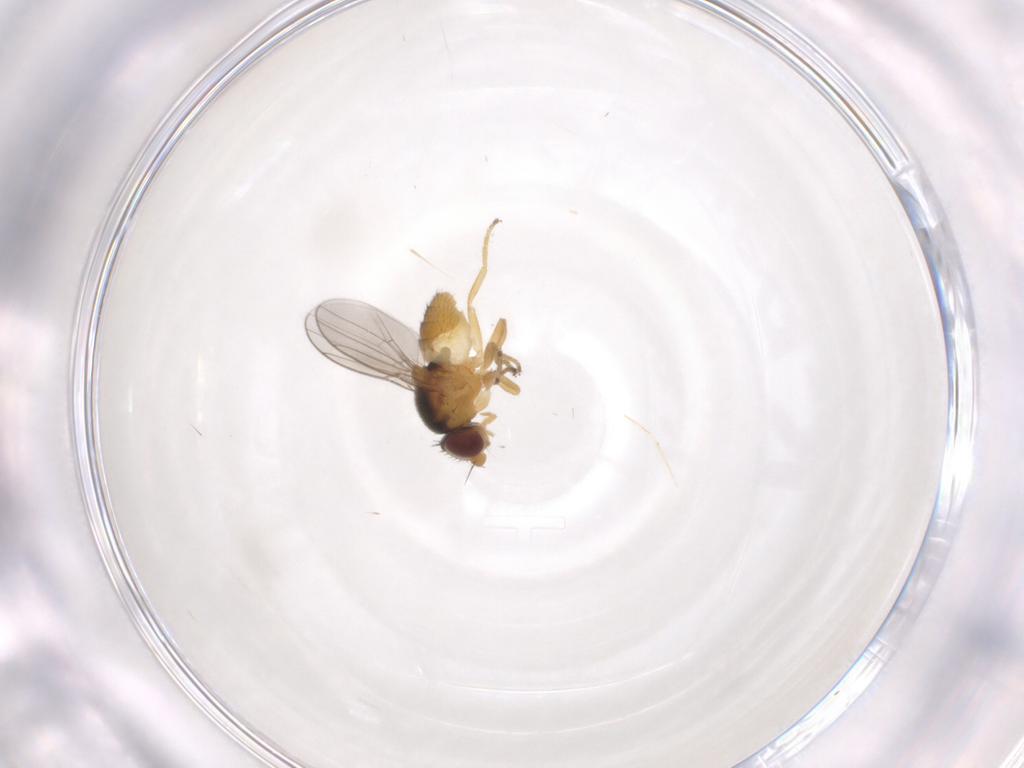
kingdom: Animalia
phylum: Arthropoda
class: Insecta
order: Diptera
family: Chloropidae
